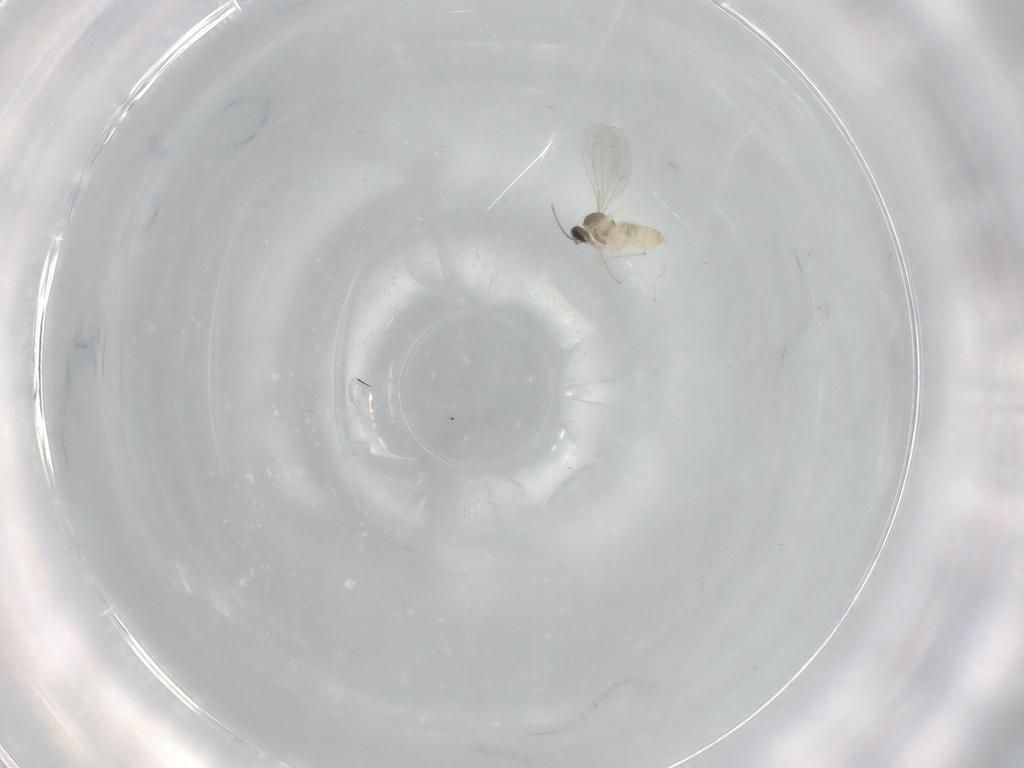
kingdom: Animalia
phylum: Arthropoda
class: Insecta
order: Diptera
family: Cecidomyiidae
